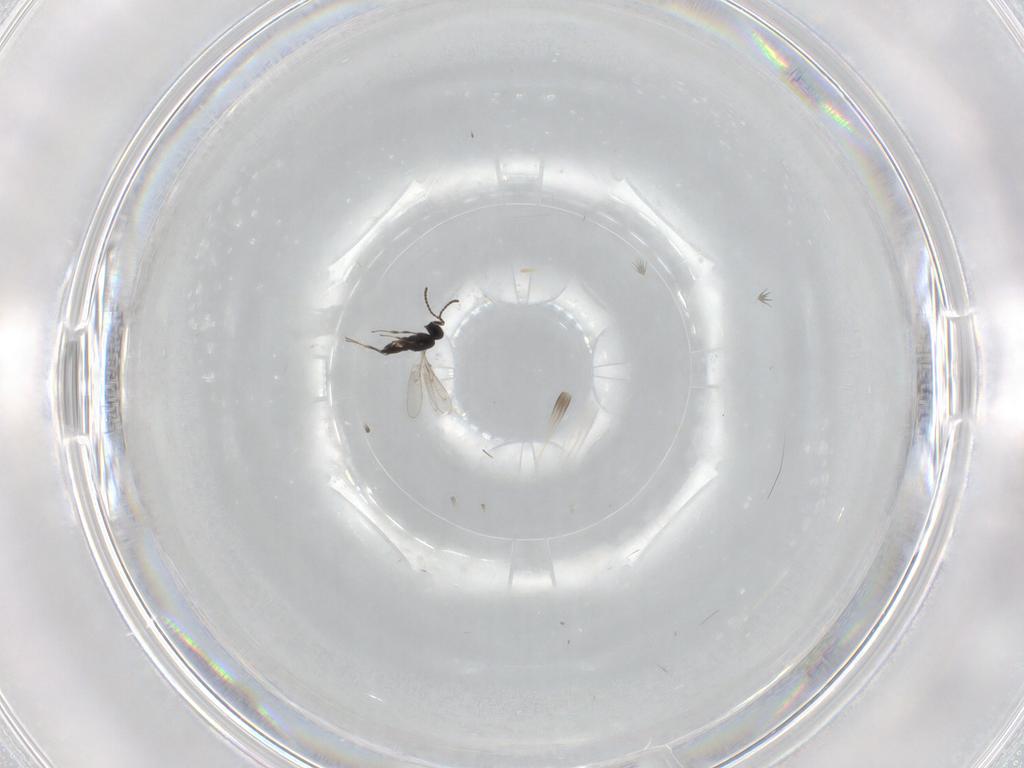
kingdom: Animalia
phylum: Arthropoda
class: Insecta
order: Hymenoptera
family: Scelionidae
